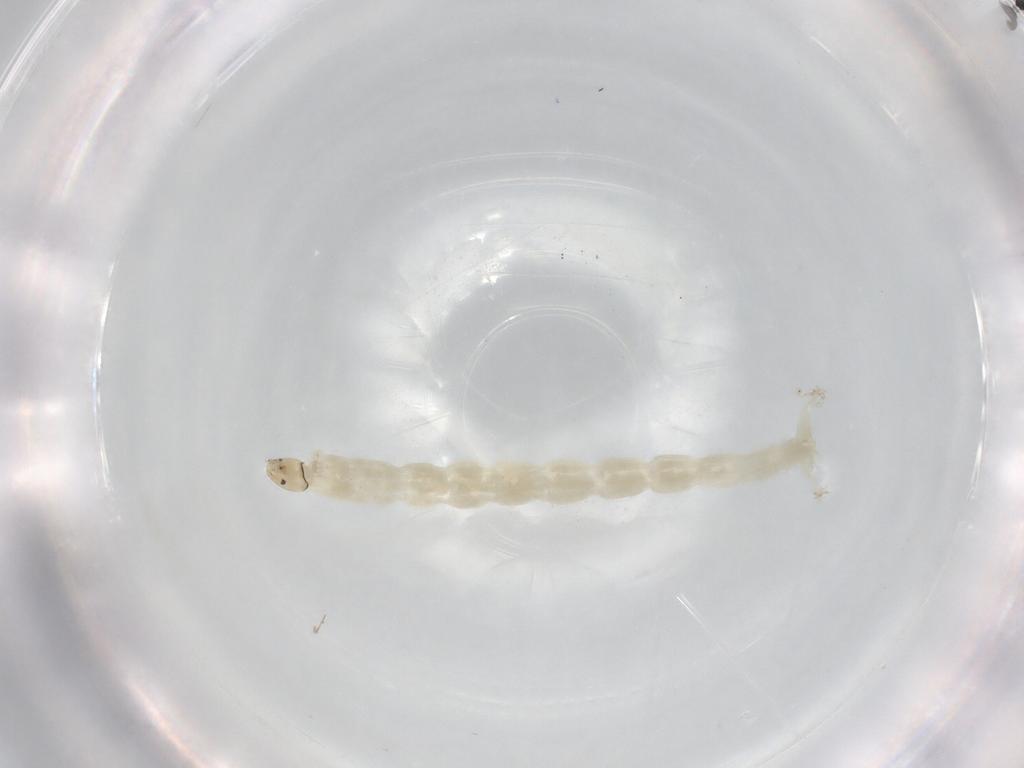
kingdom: Animalia
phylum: Arthropoda
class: Insecta
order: Diptera
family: Chironomidae
